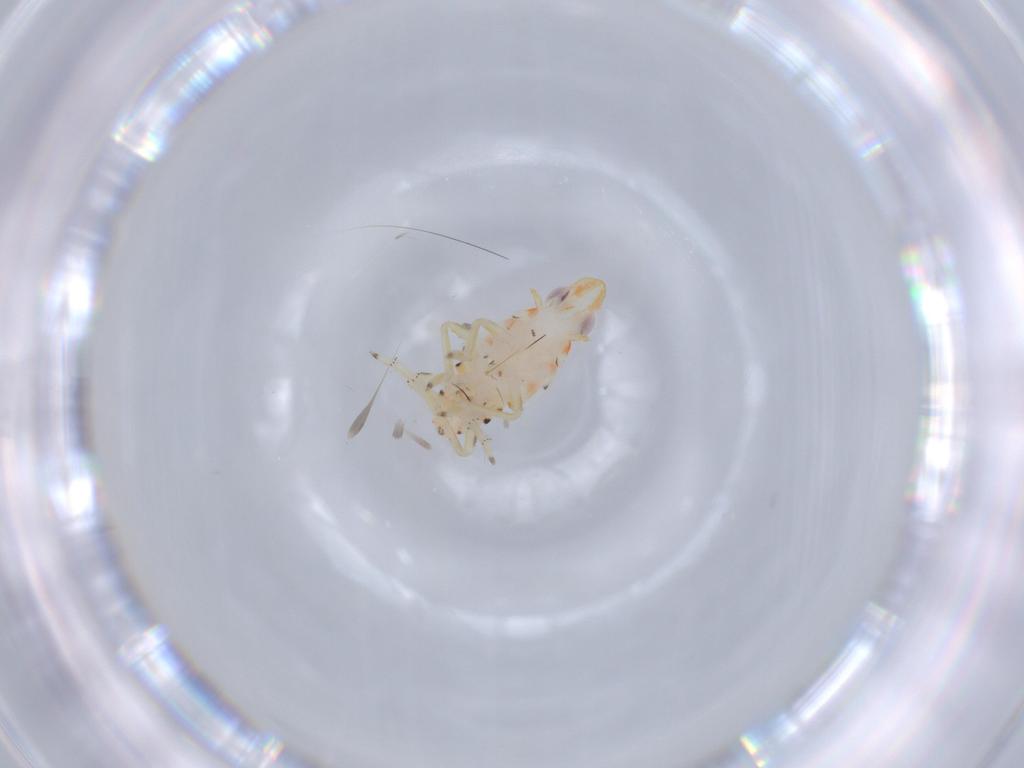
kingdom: Animalia
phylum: Arthropoda
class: Insecta
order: Hemiptera
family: Tropiduchidae
